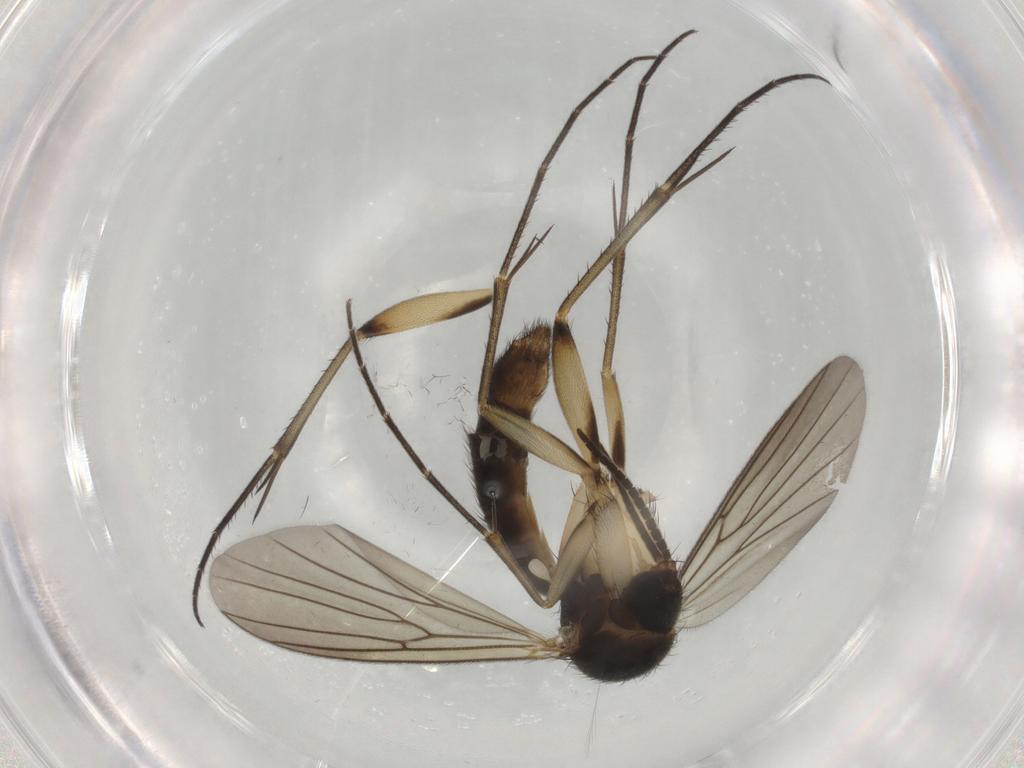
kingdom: Animalia
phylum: Arthropoda
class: Insecta
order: Diptera
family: Mycetophilidae
